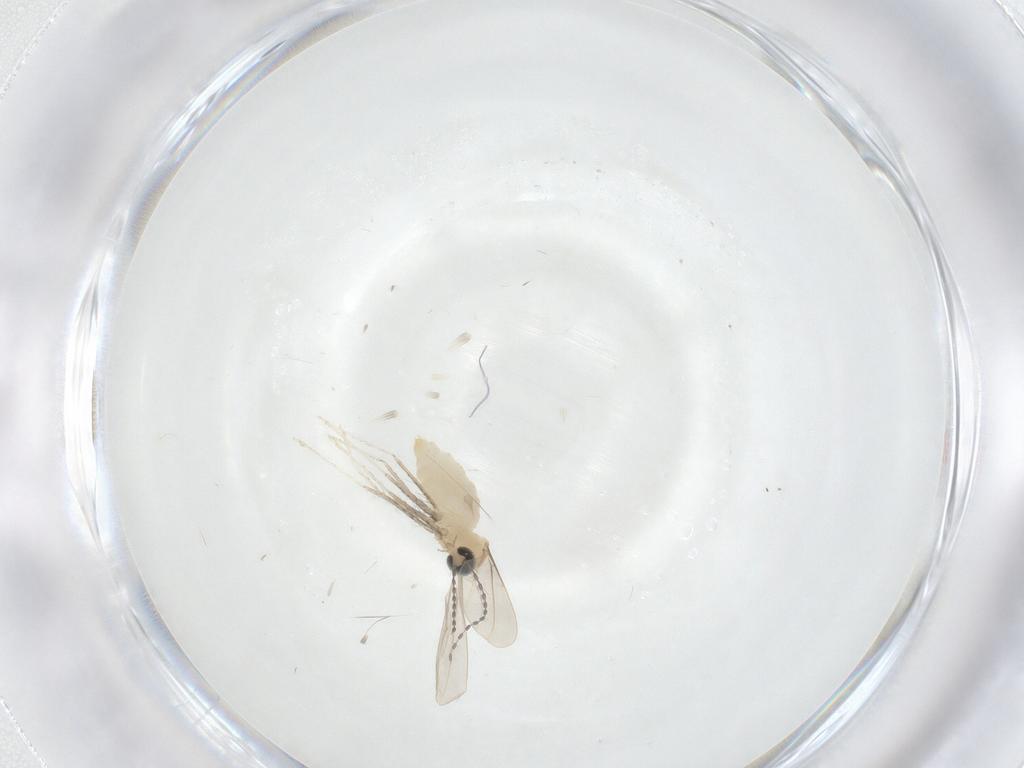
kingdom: Animalia
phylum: Arthropoda
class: Insecta
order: Diptera
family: Cecidomyiidae
